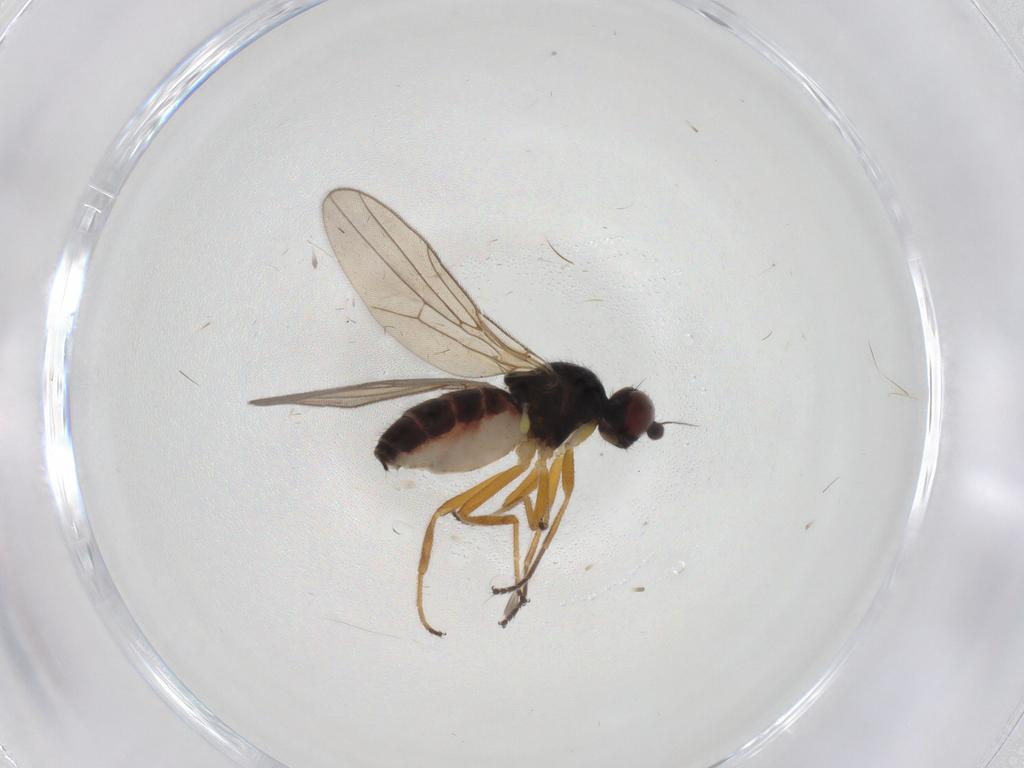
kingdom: Animalia
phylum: Arthropoda
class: Insecta
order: Diptera
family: Chloropidae
